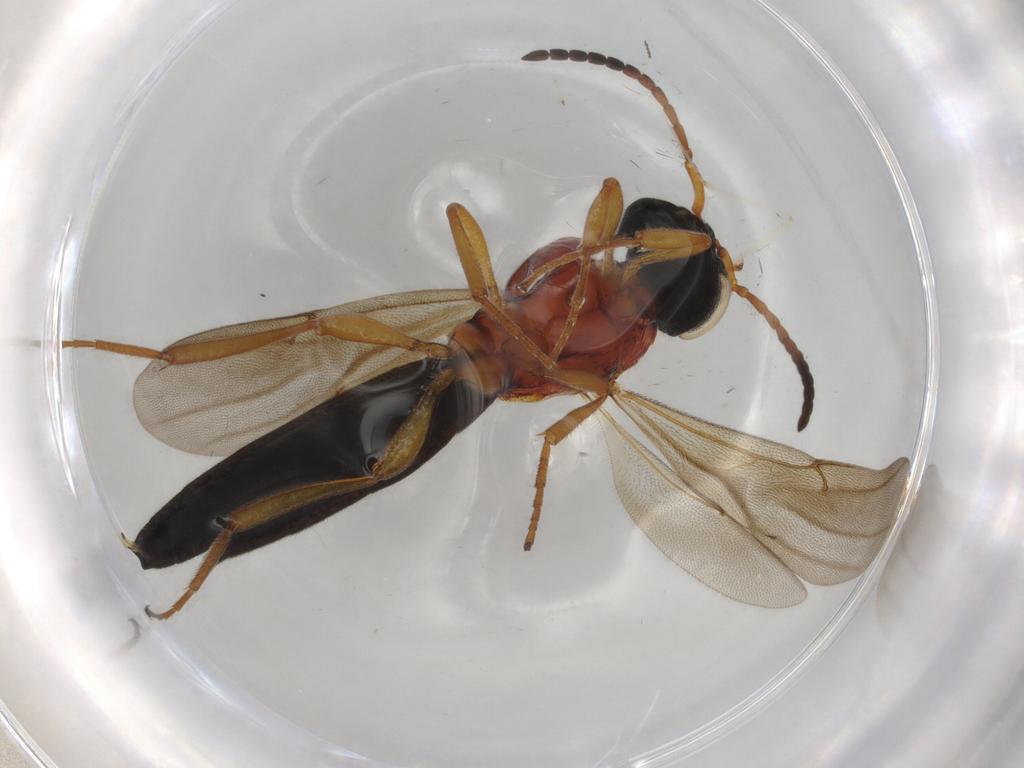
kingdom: Animalia
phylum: Arthropoda
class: Insecta
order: Hymenoptera
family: Scelionidae
